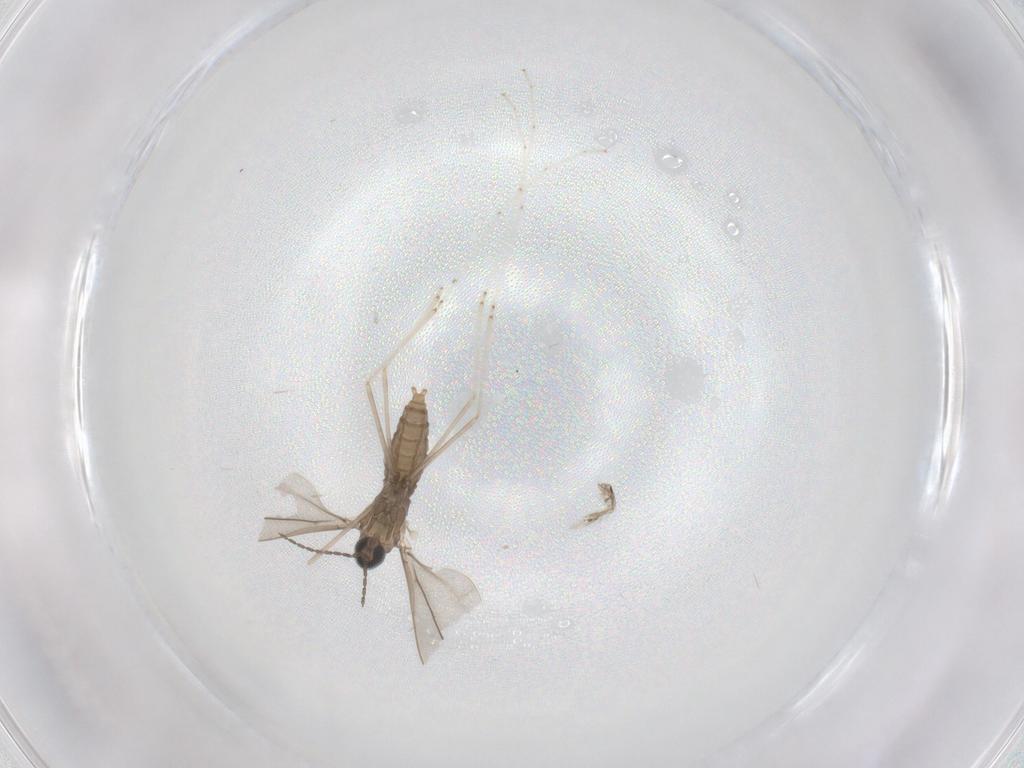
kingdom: Animalia
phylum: Arthropoda
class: Insecta
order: Diptera
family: Cecidomyiidae
